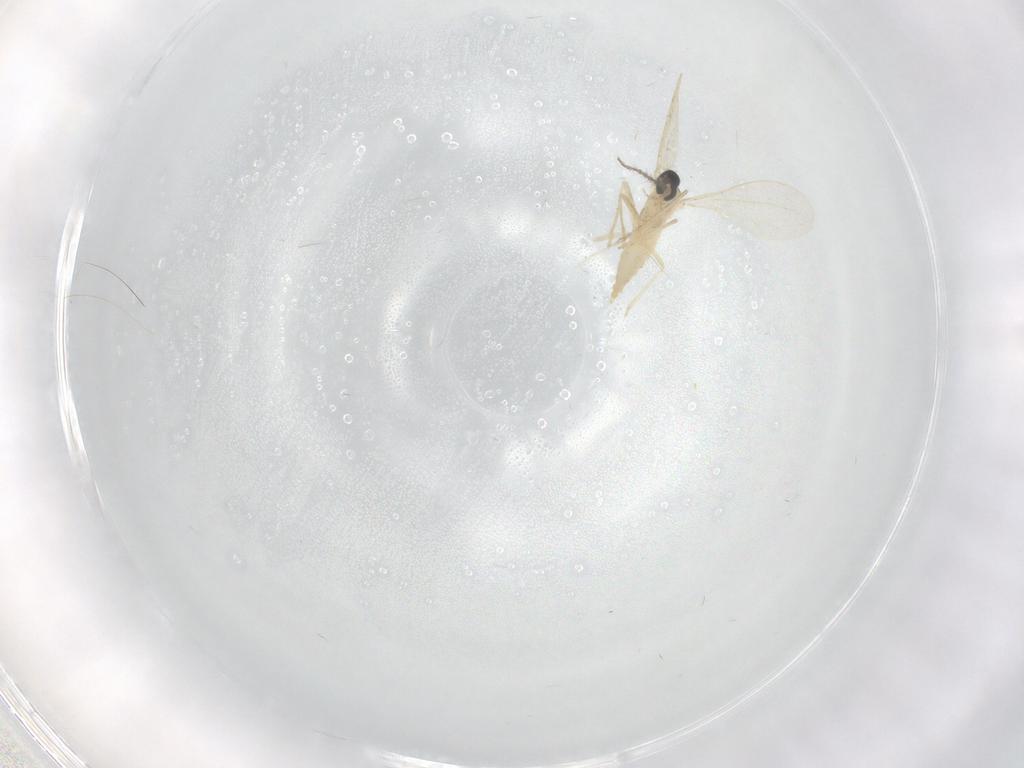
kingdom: Animalia
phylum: Arthropoda
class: Insecta
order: Diptera
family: Cecidomyiidae
